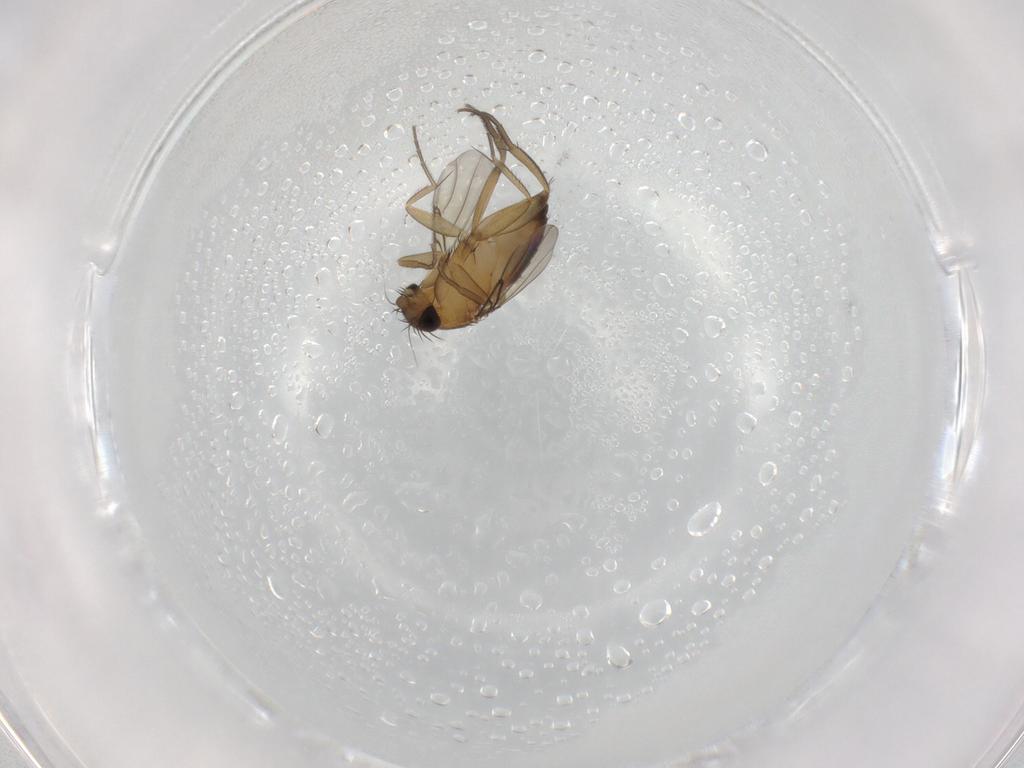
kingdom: Animalia
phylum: Arthropoda
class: Insecta
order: Diptera
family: Phoridae
